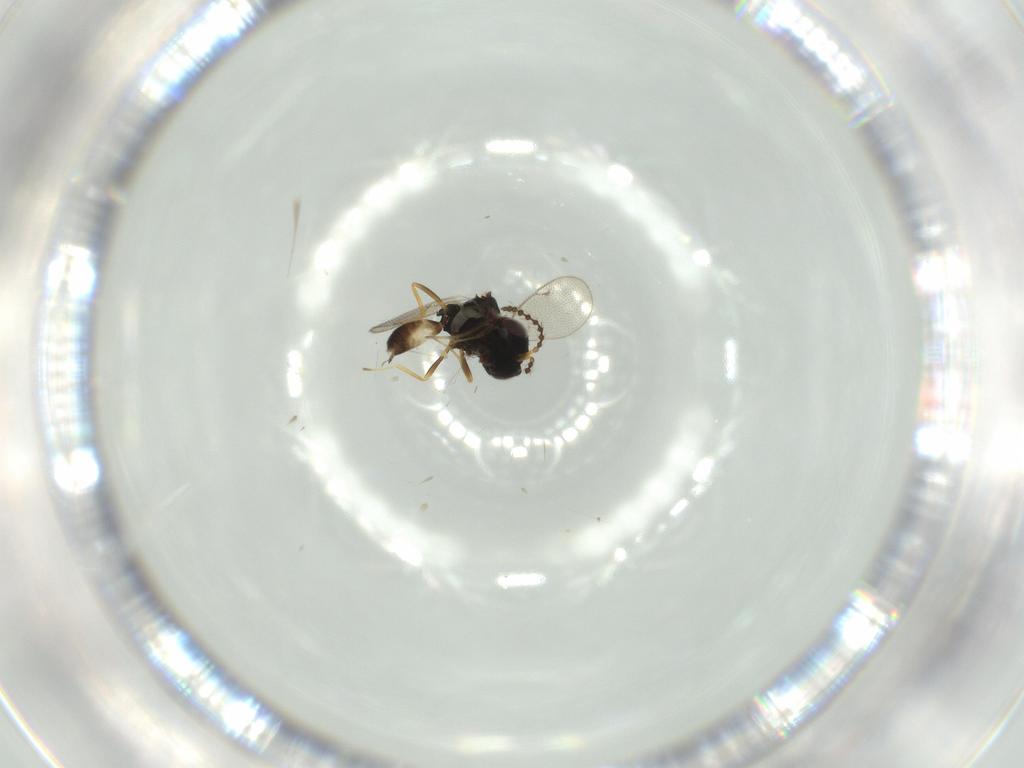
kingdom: Animalia
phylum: Arthropoda
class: Insecta
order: Hymenoptera
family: Pteromalidae
